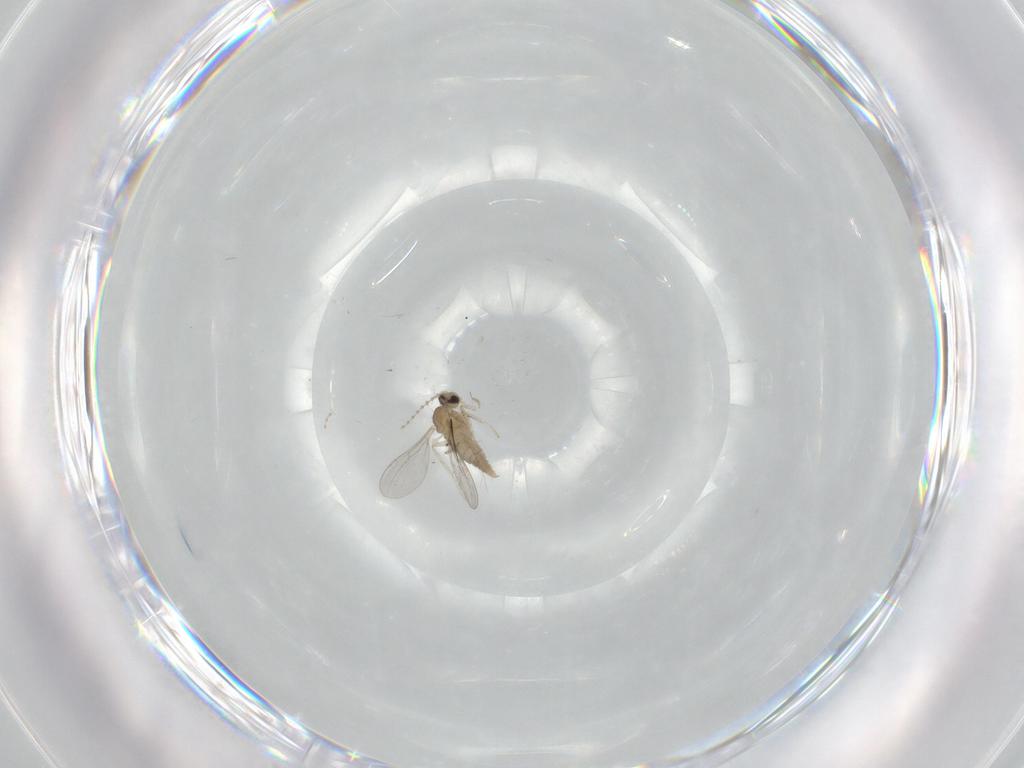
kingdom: Animalia
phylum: Arthropoda
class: Insecta
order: Diptera
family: Cecidomyiidae
